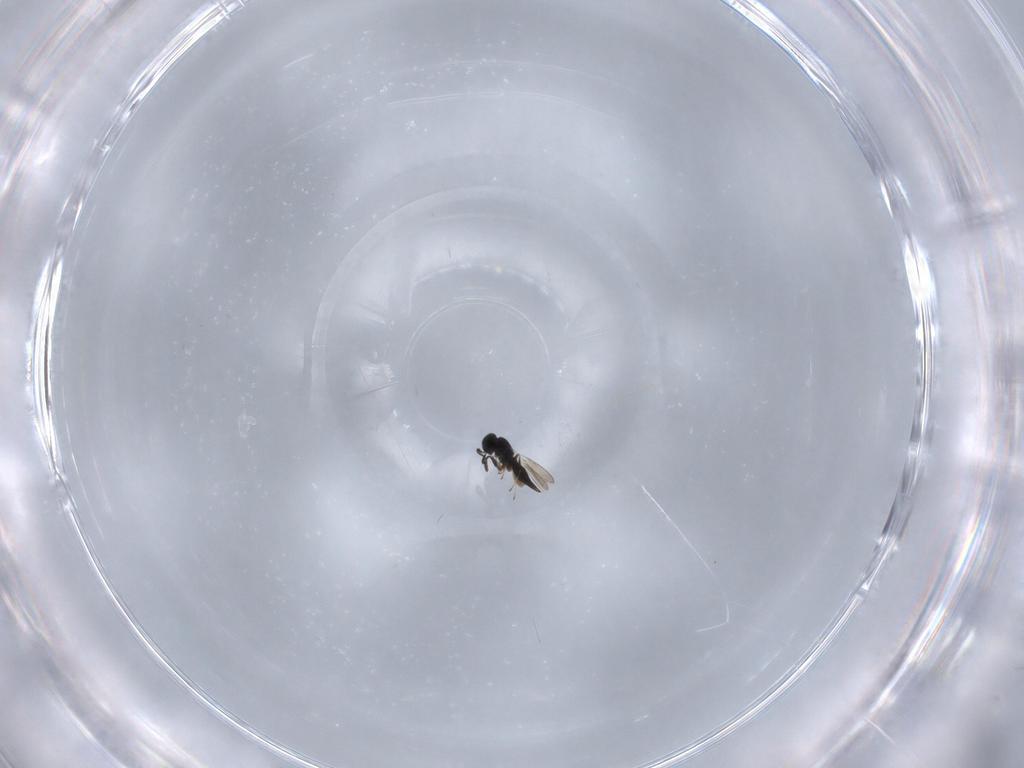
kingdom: Animalia
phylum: Arthropoda
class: Insecta
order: Hymenoptera
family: Scelionidae
